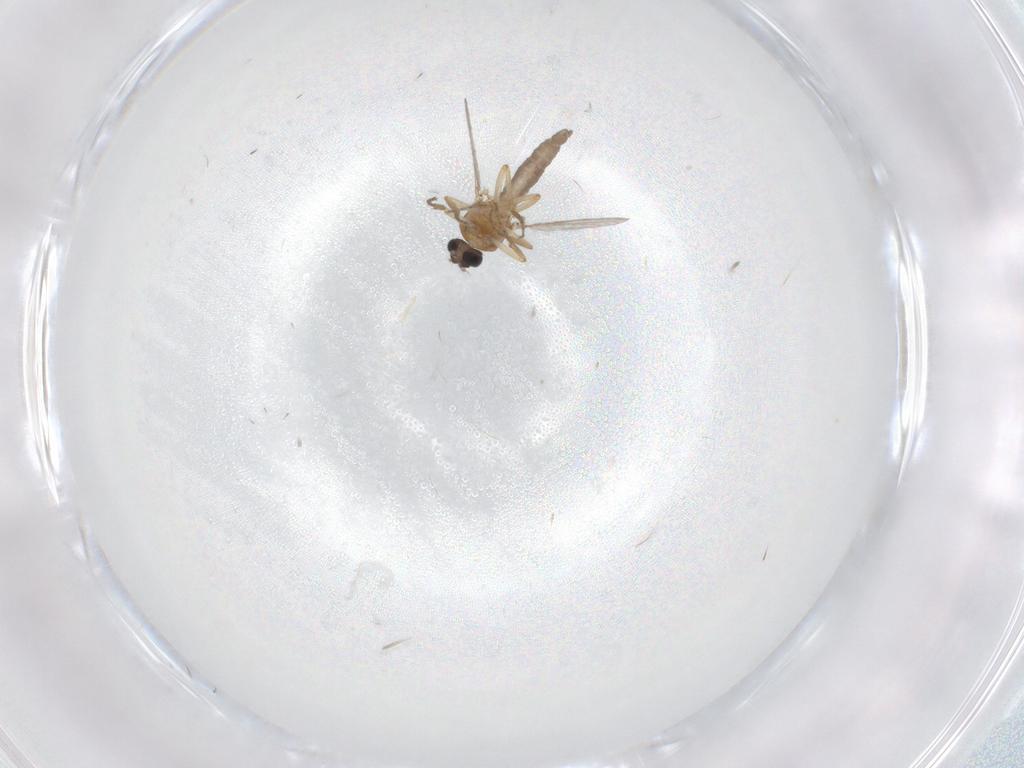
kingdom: Animalia
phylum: Arthropoda
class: Insecta
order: Diptera
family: Ceratopogonidae
